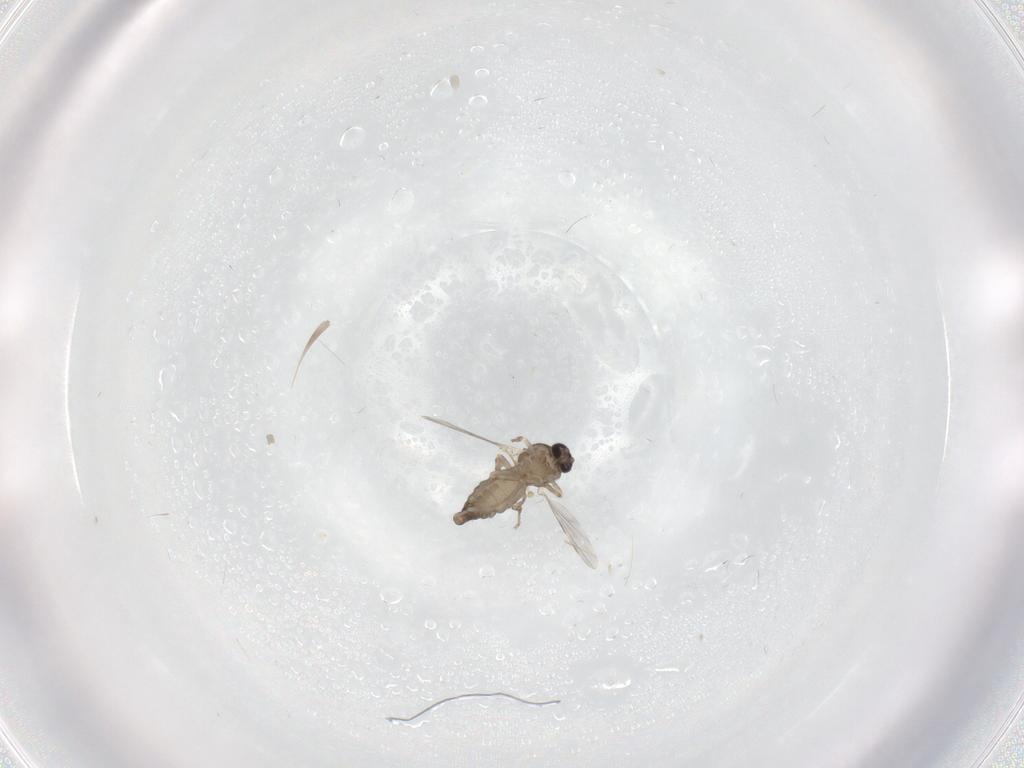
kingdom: Animalia
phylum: Arthropoda
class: Insecta
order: Diptera
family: Ceratopogonidae
